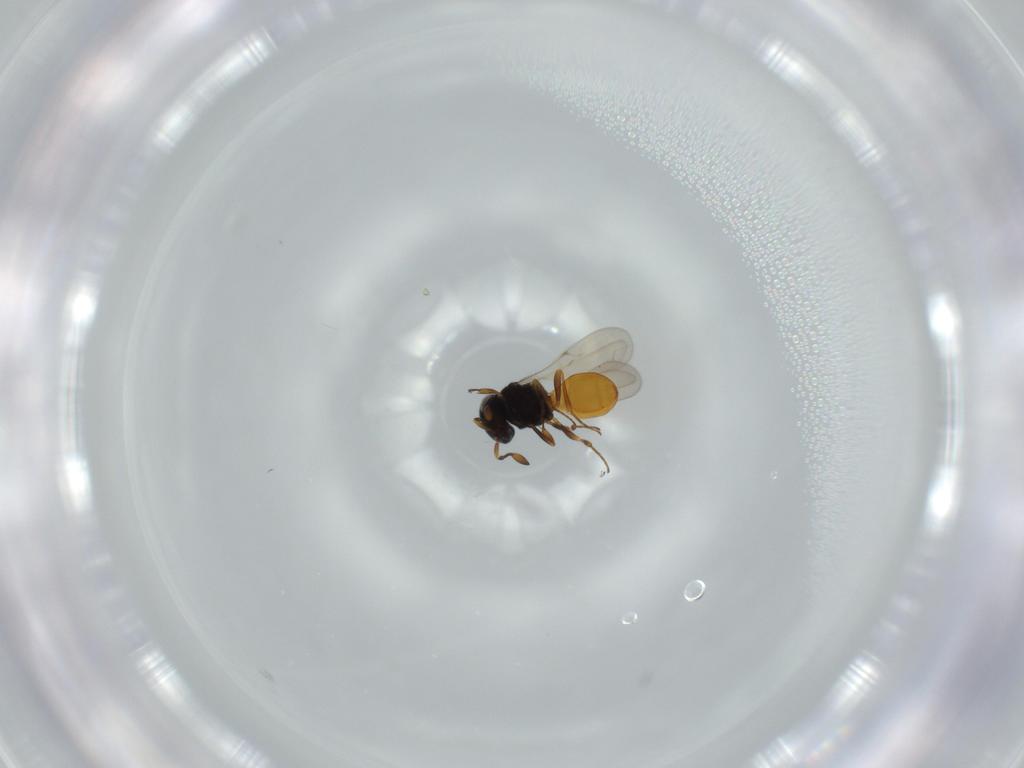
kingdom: Animalia
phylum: Arthropoda
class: Insecta
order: Hymenoptera
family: Scelionidae
